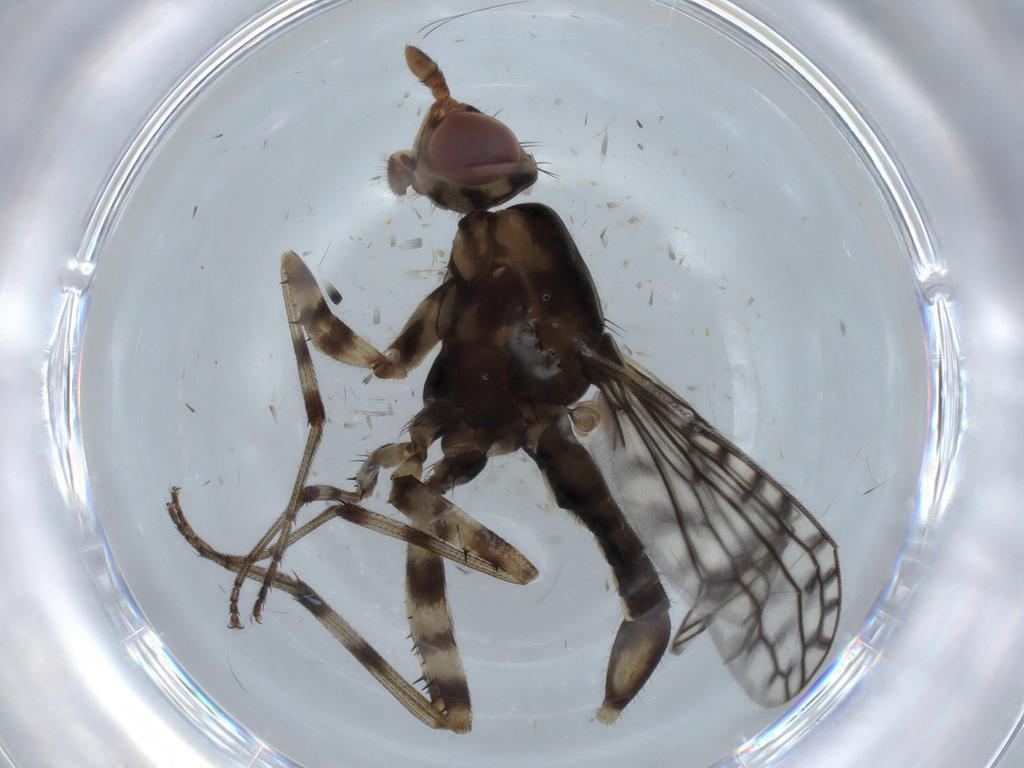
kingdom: Animalia
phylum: Arthropoda
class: Insecta
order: Diptera
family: Neriidae
